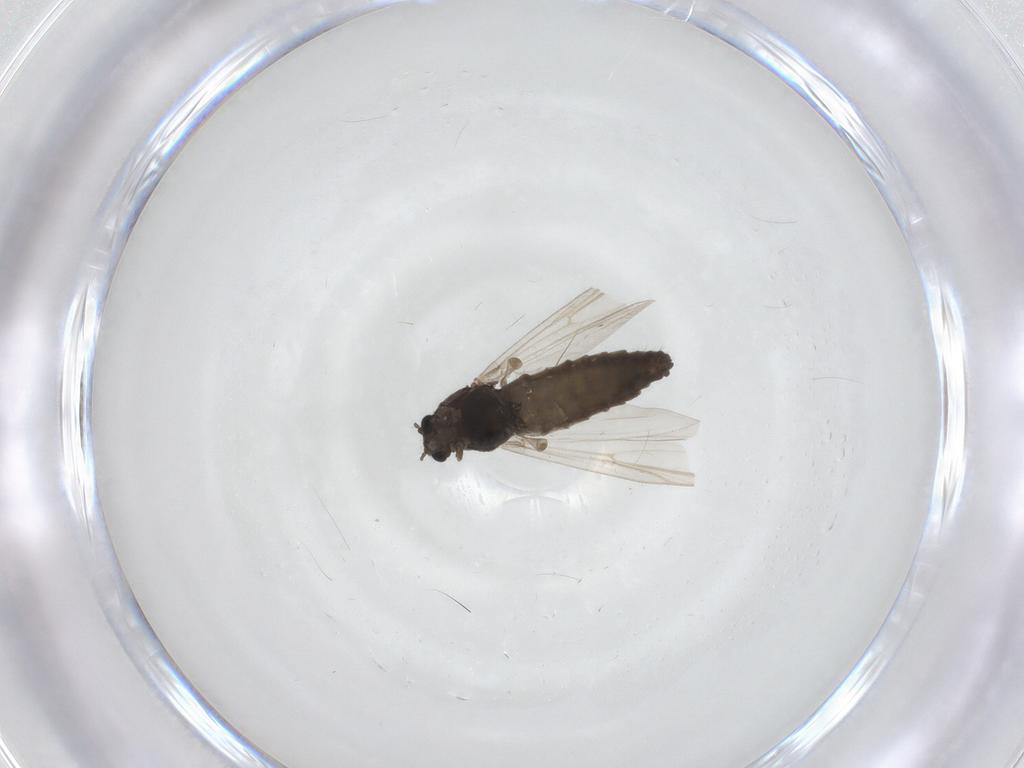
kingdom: Animalia
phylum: Arthropoda
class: Insecta
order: Diptera
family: Chironomidae
